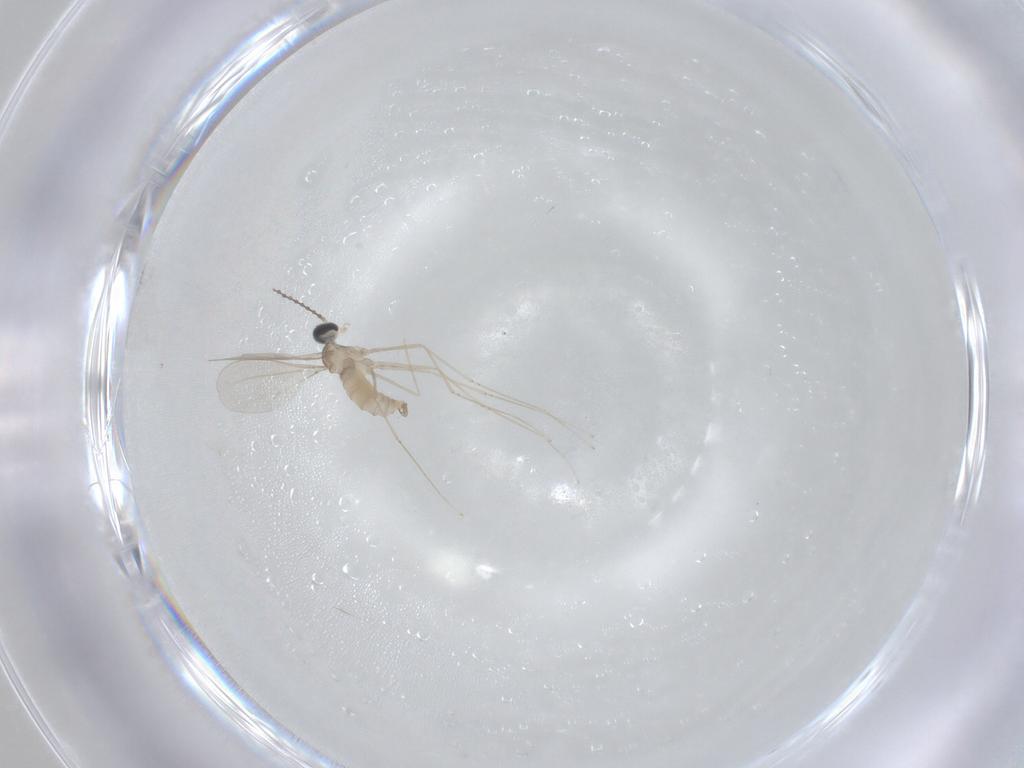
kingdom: Animalia
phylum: Arthropoda
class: Insecta
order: Diptera
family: Cecidomyiidae
